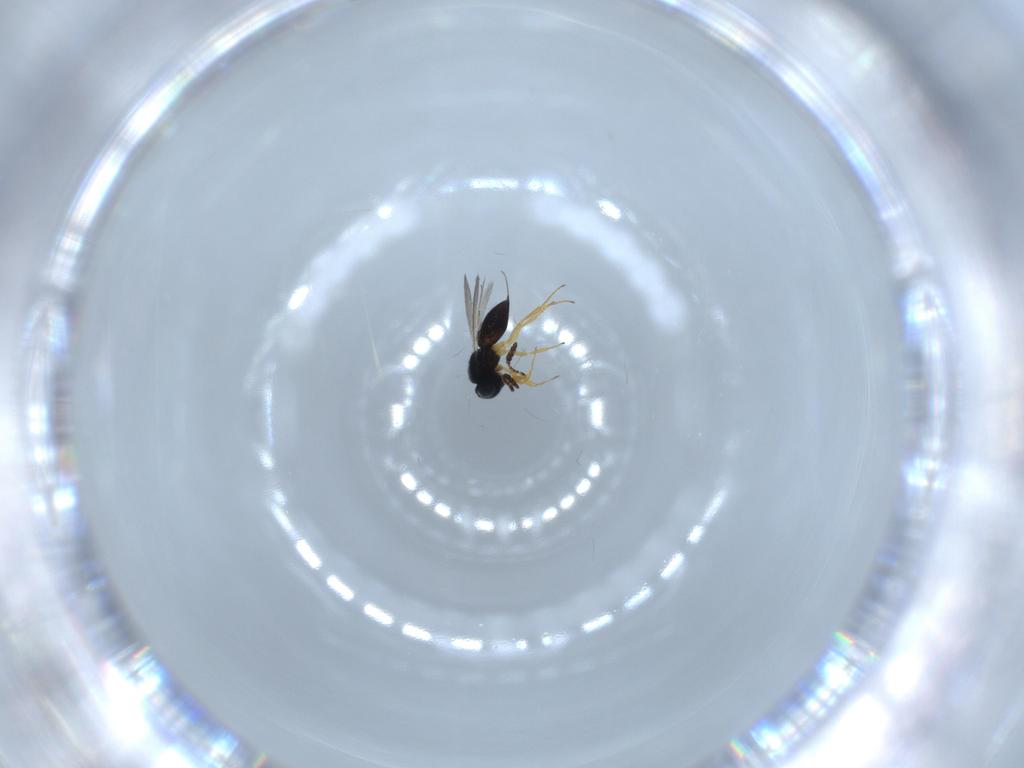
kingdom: Animalia
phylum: Arthropoda
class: Insecta
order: Hymenoptera
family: Scelionidae
